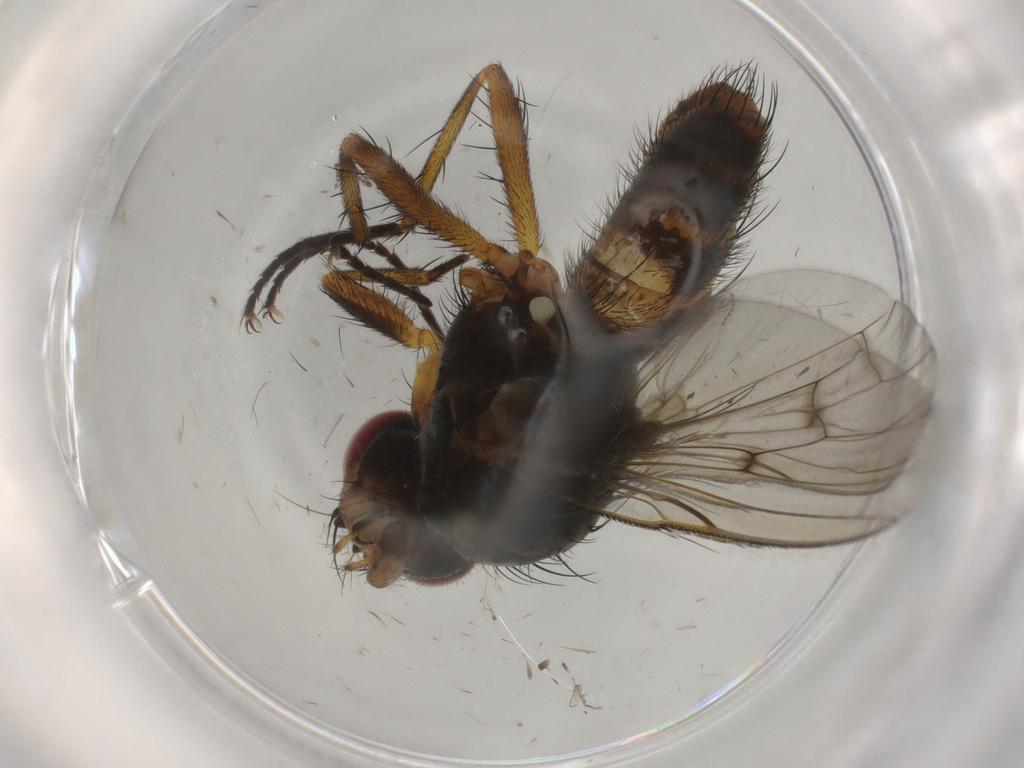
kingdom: Animalia
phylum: Arthropoda
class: Insecta
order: Diptera
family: Anthomyiidae
